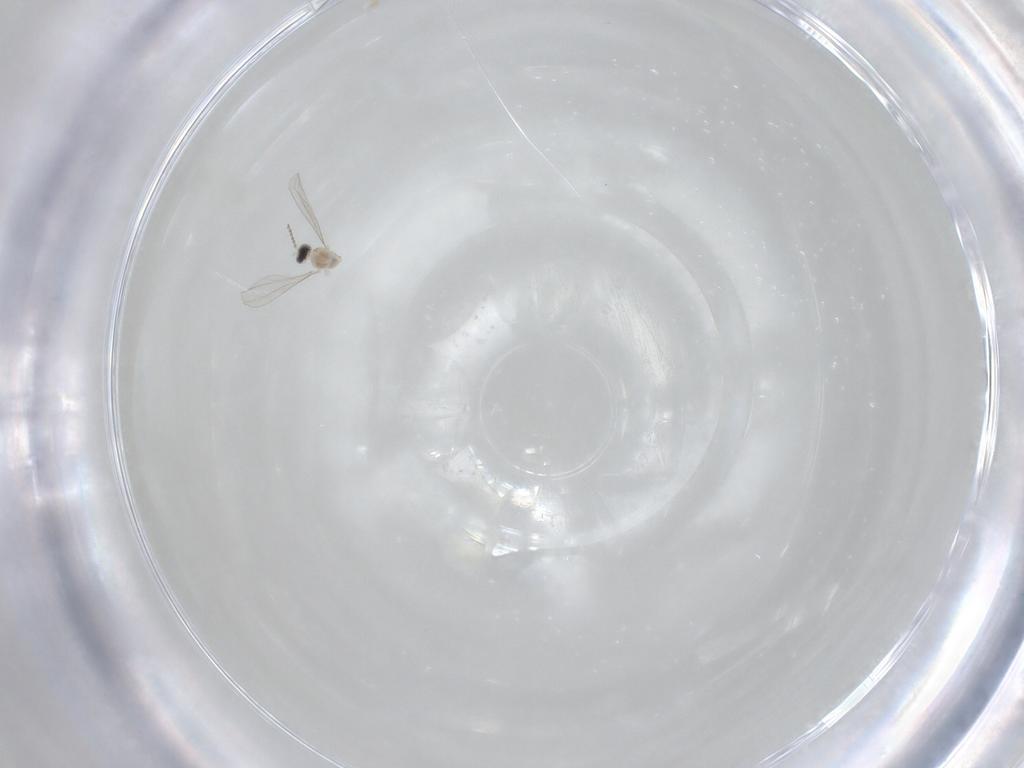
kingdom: Animalia
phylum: Arthropoda
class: Insecta
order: Diptera
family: Cecidomyiidae
